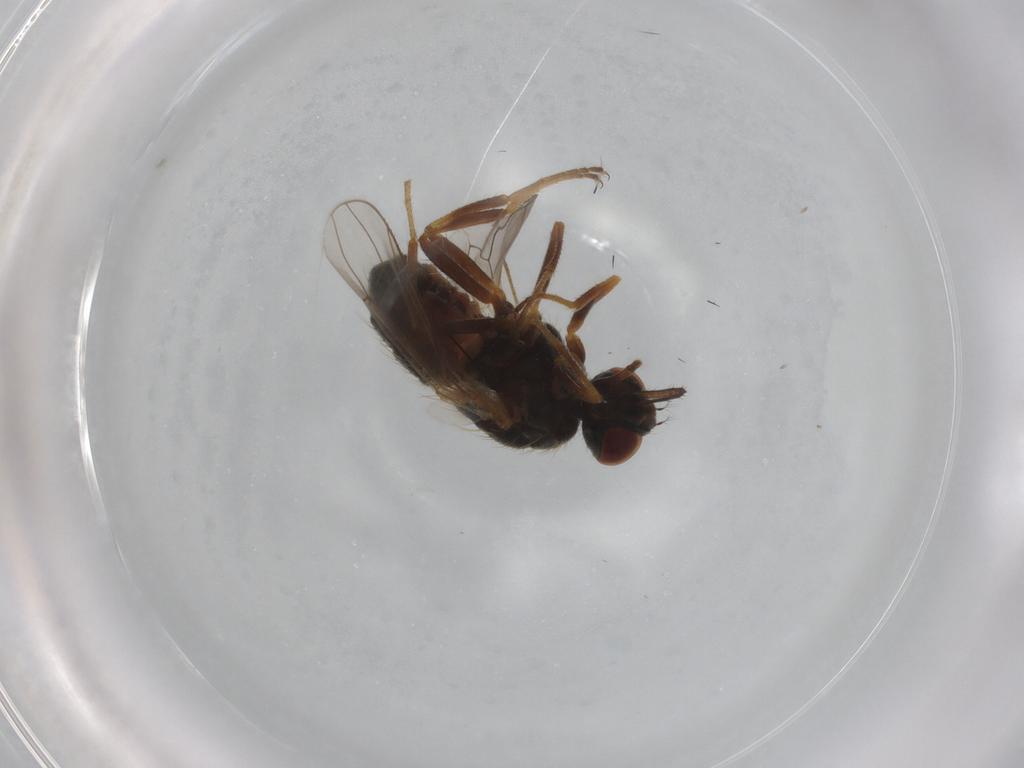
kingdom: Animalia
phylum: Arthropoda
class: Insecta
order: Diptera
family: Muscidae
